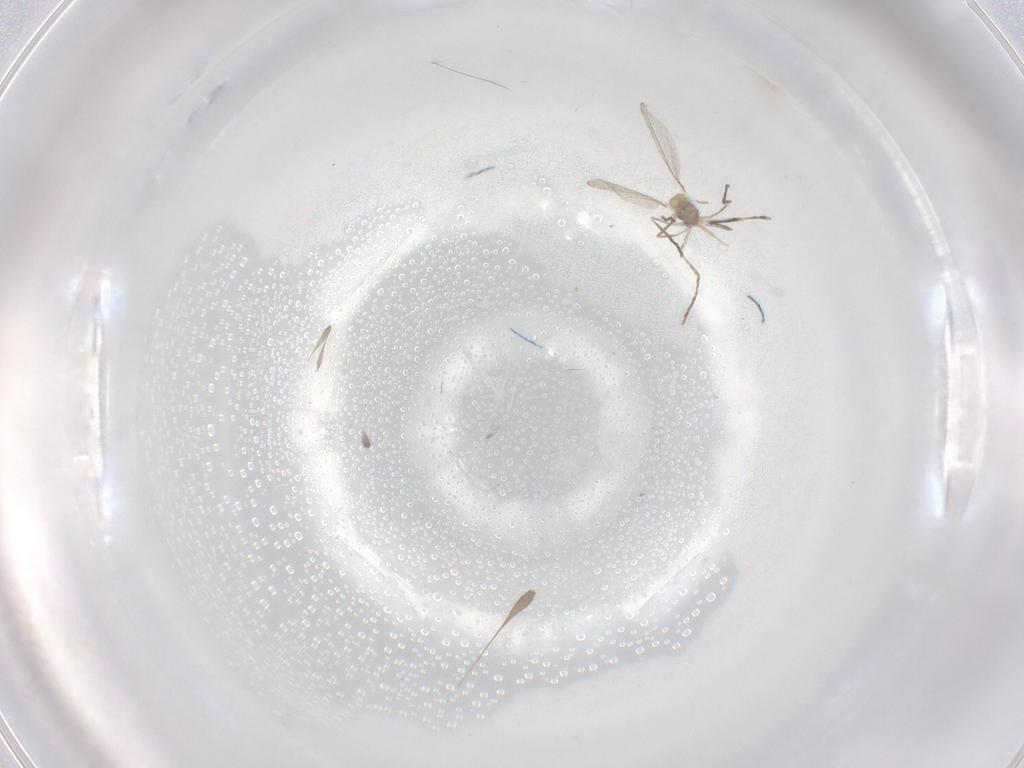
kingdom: Animalia
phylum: Arthropoda
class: Insecta
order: Diptera
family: Cecidomyiidae
